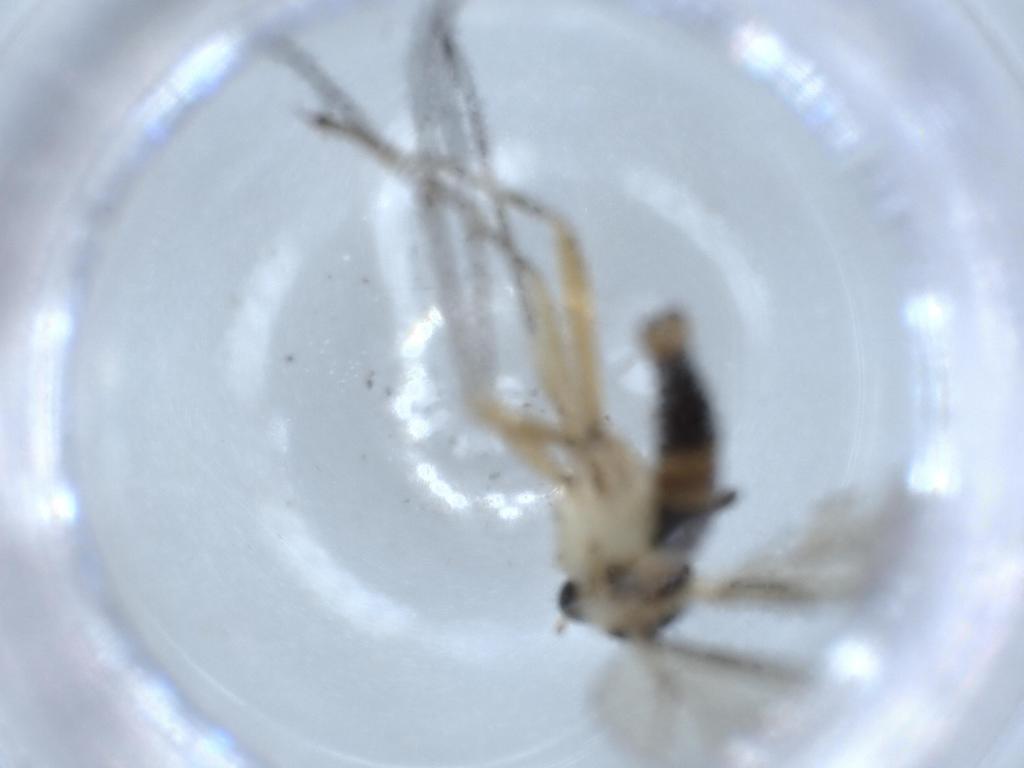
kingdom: Animalia
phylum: Arthropoda
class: Insecta
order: Diptera
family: Sciaridae
